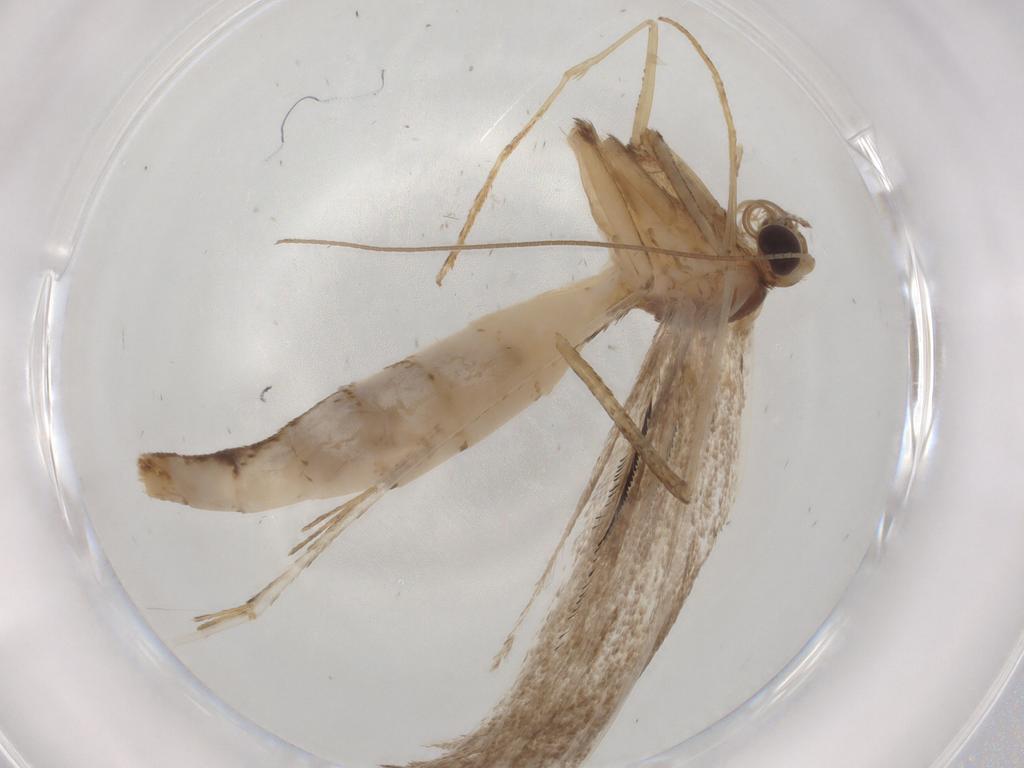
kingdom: Animalia
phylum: Arthropoda
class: Insecta
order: Lepidoptera
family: Pterophoridae
